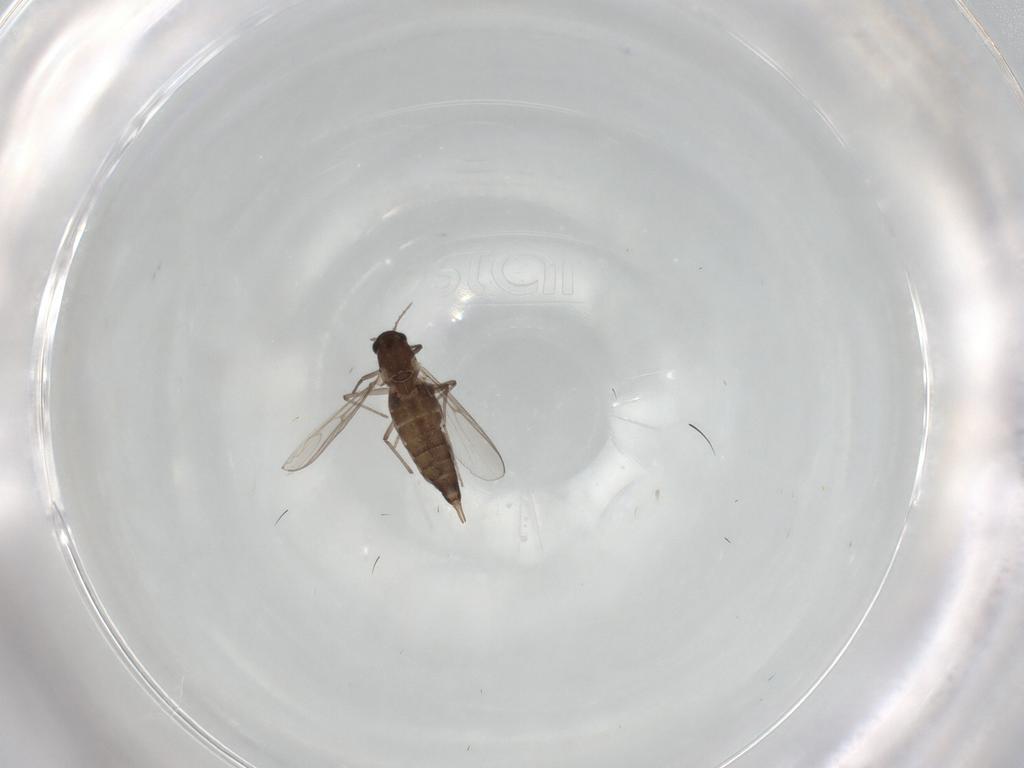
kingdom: Animalia
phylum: Arthropoda
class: Insecta
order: Diptera
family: Chironomidae
